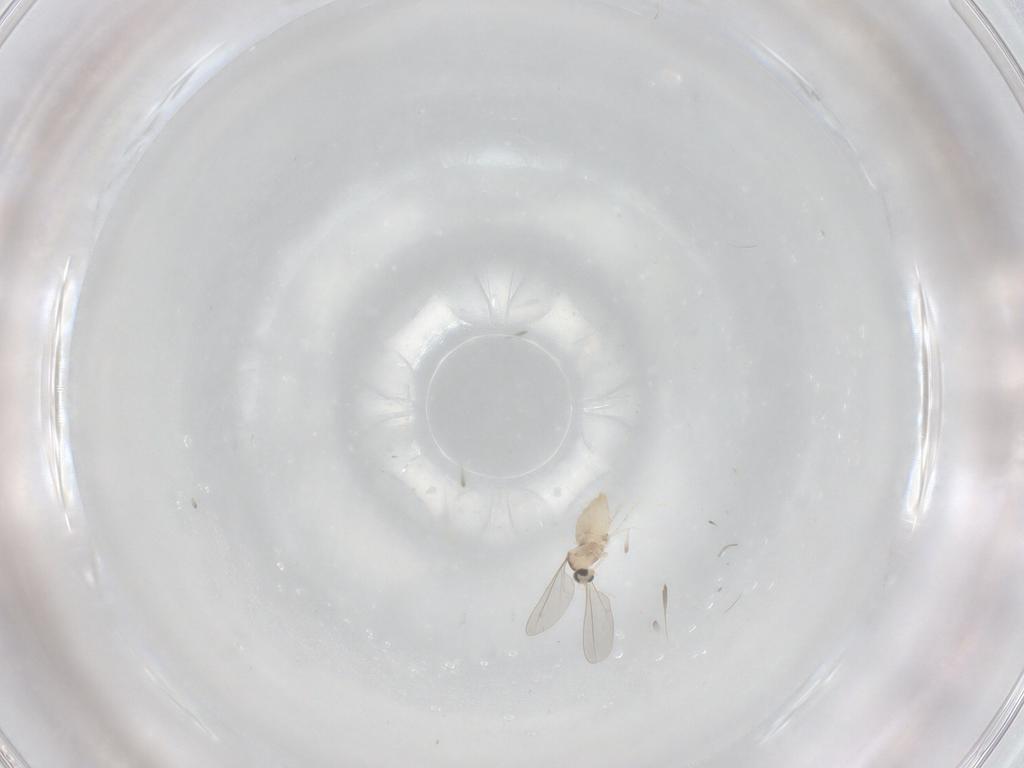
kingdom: Animalia
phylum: Arthropoda
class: Insecta
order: Diptera
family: Cecidomyiidae
